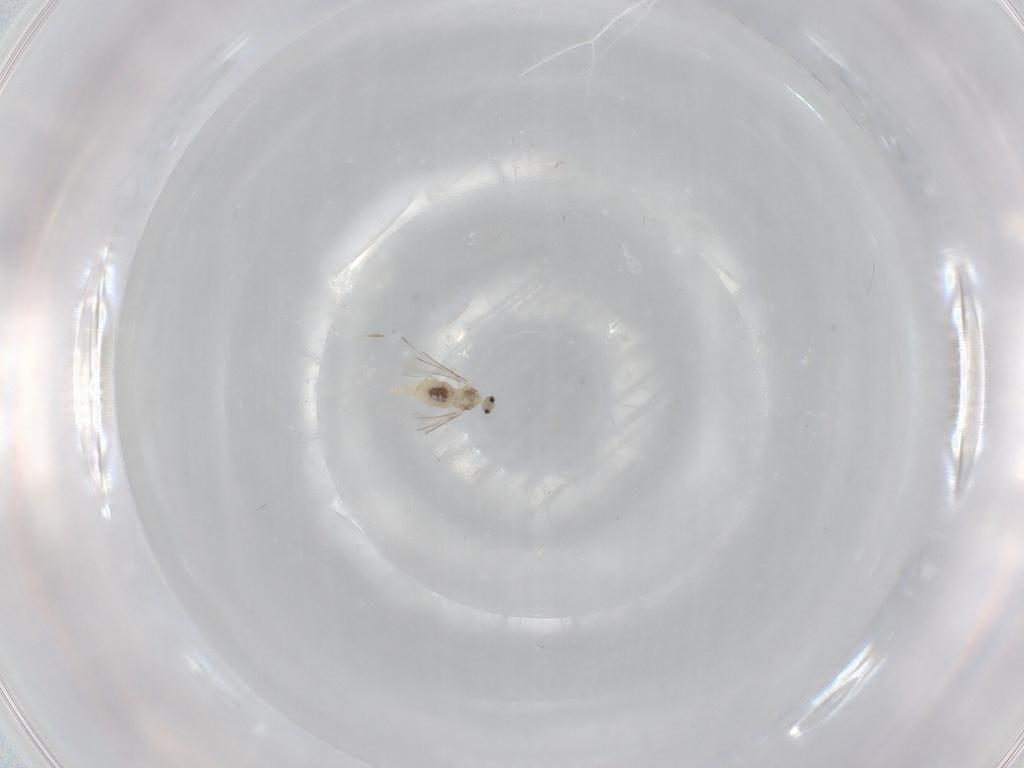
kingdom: Animalia
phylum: Arthropoda
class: Insecta
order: Diptera
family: Cecidomyiidae
